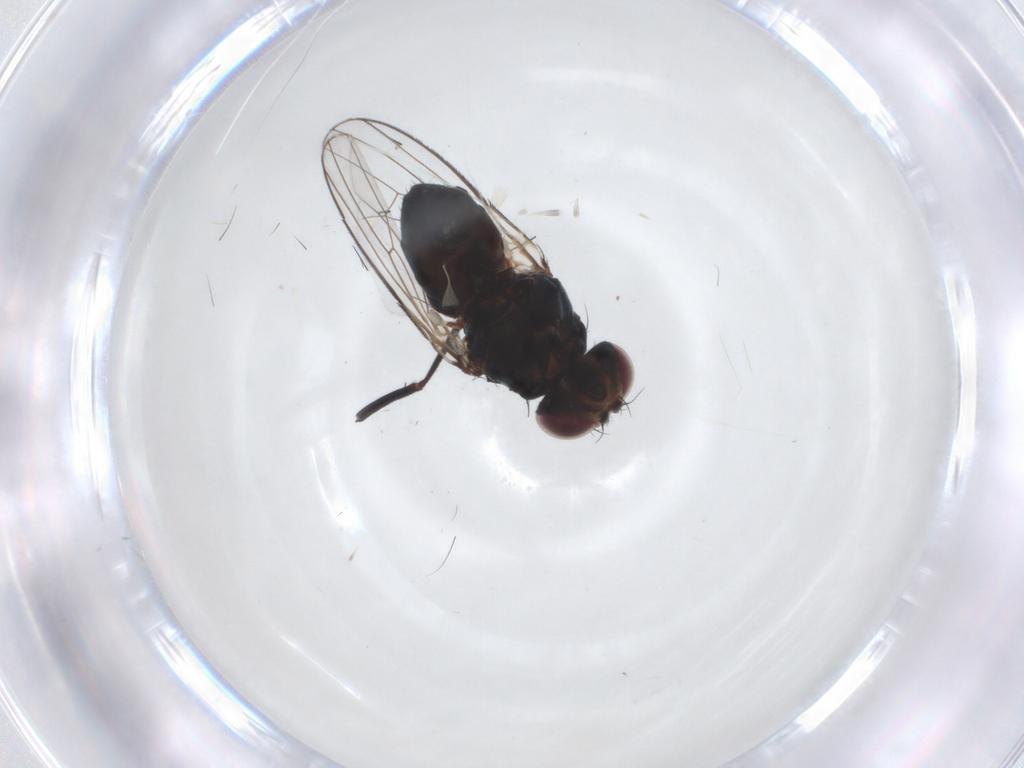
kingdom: Animalia
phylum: Arthropoda
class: Insecta
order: Diptera
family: Carnidae
